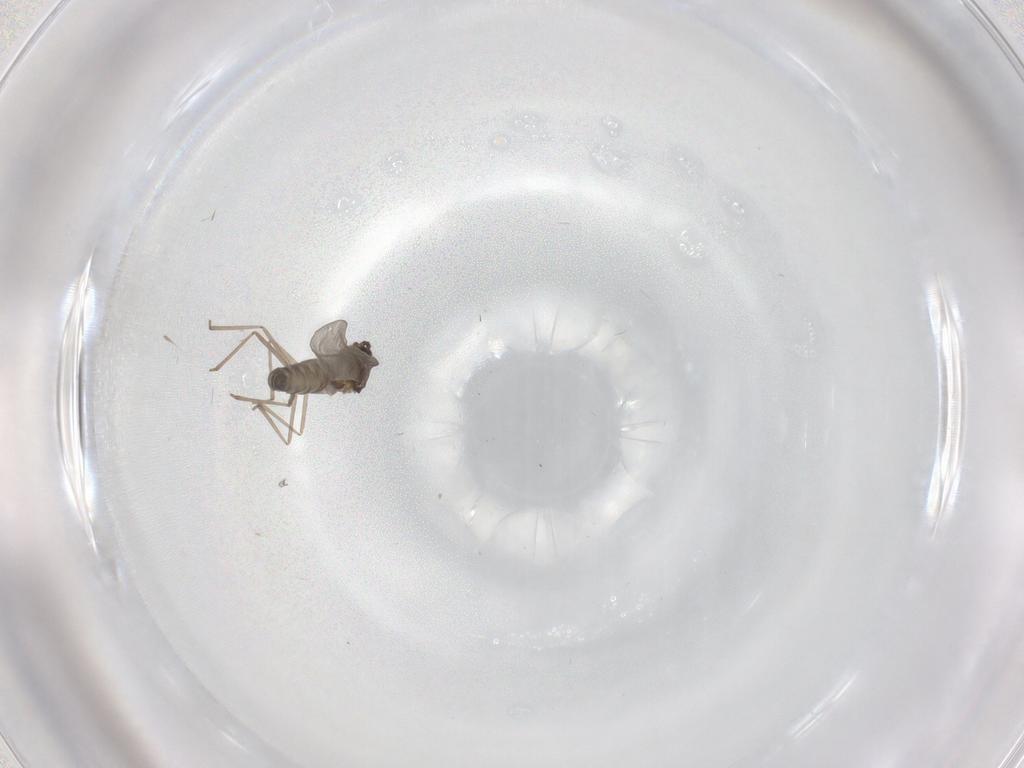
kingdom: Animalia
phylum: Arthropoda
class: Insecta
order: Diptera
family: Cecidomyiidae
